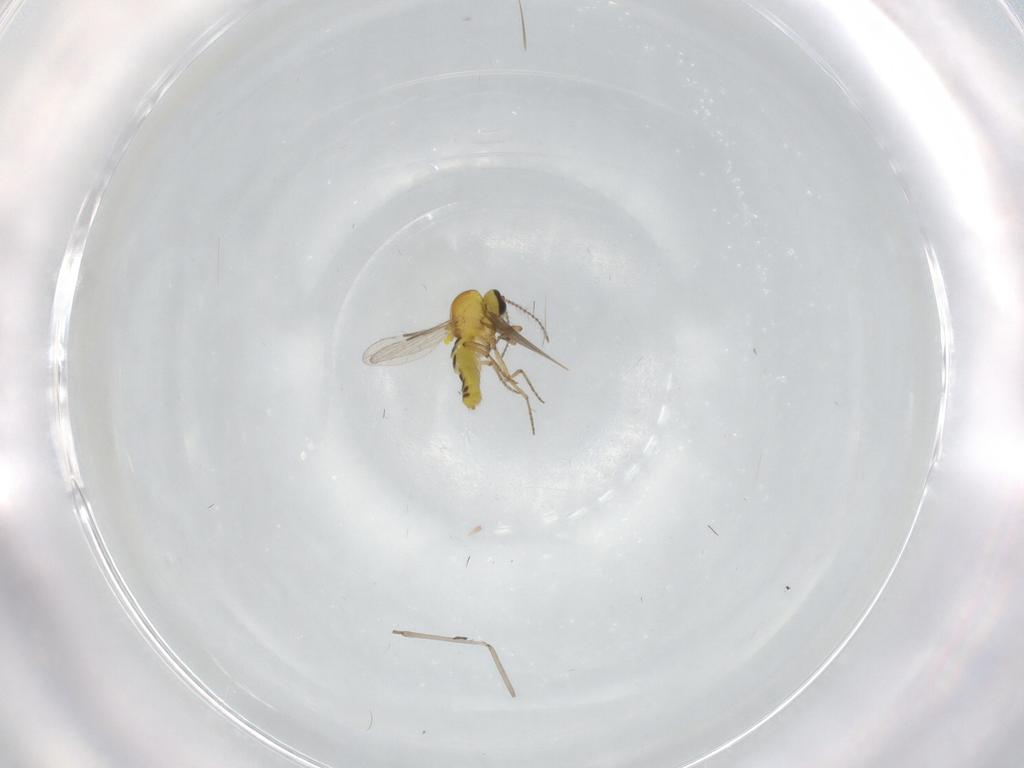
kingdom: Animalia
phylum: Arthropoda
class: Insecta
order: Diptera
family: Ceratopogonidae
